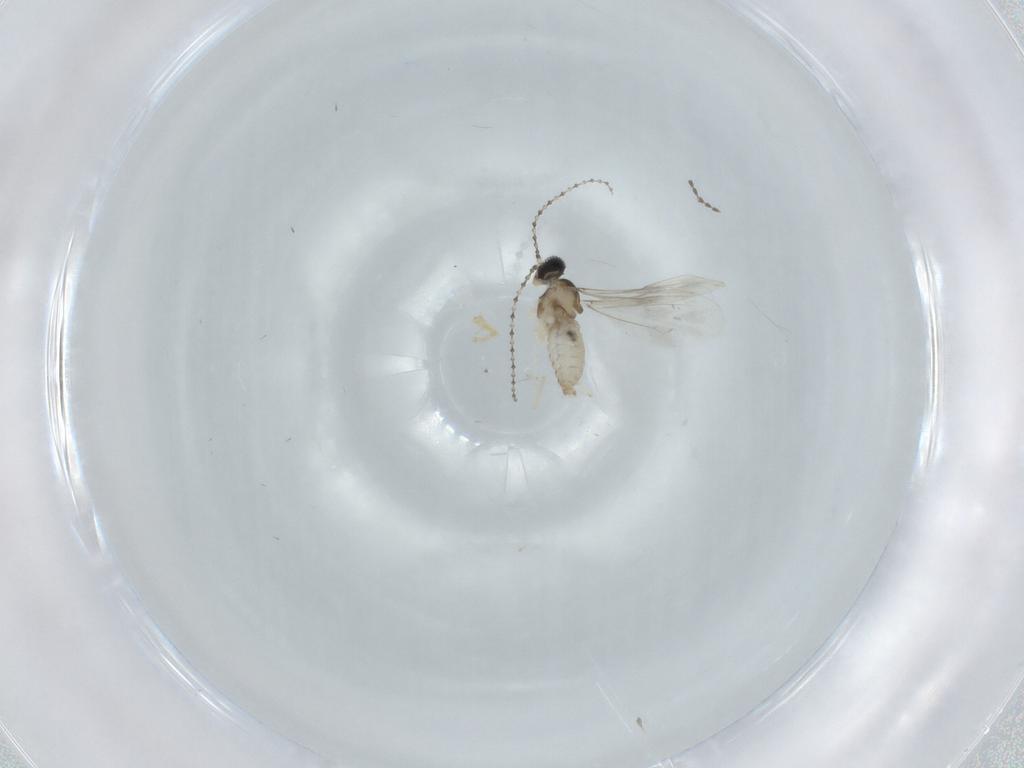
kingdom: Animalia
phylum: Arthropoda
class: Insecta
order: Diptera
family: Cecidomyiidae
